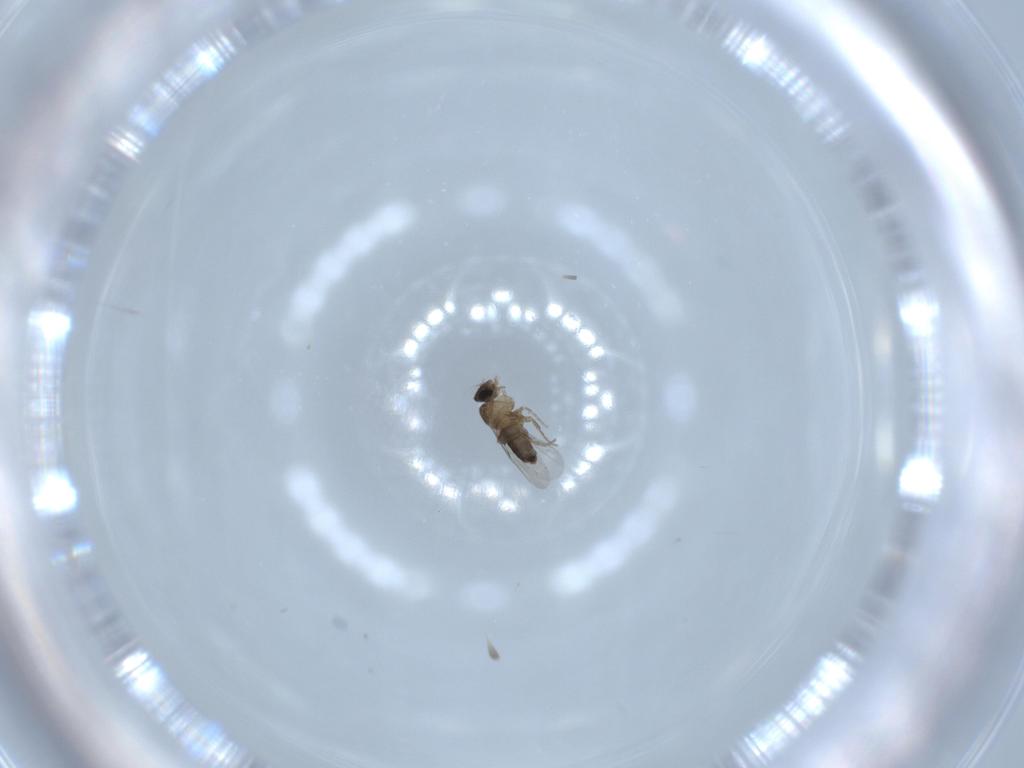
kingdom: Animalia
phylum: Arthropoda
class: Insecta
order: Diptera
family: Phoridae
